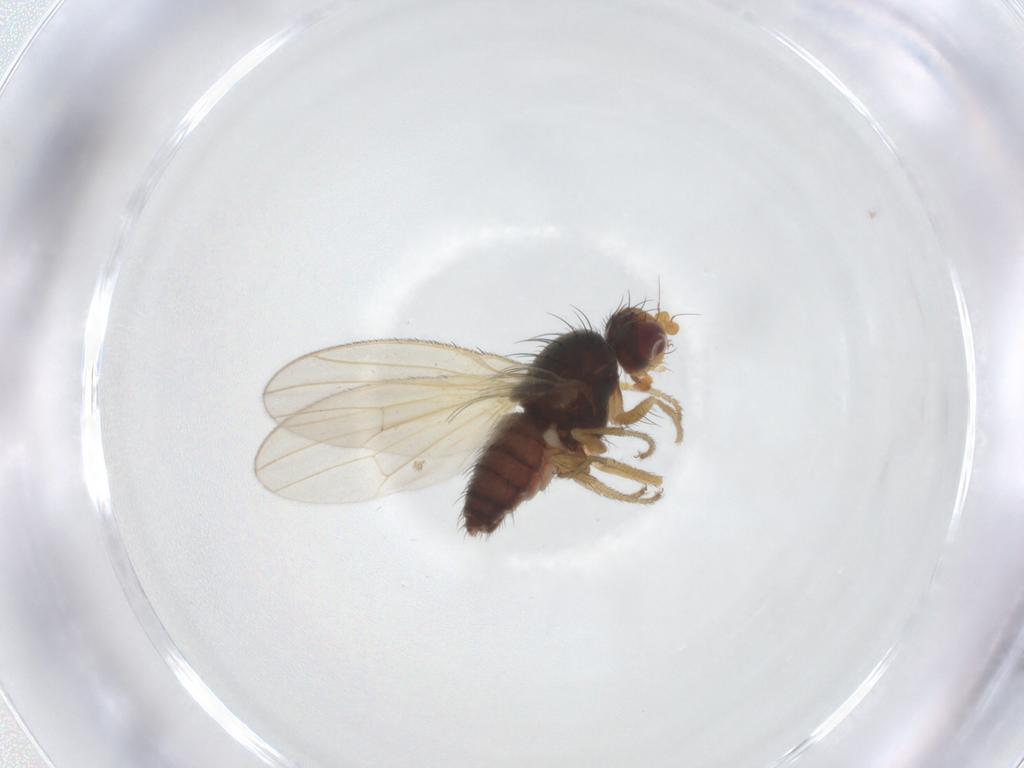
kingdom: Animalia
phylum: Arthropoda
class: Insecta
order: Diptera
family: Heleomyzidae
